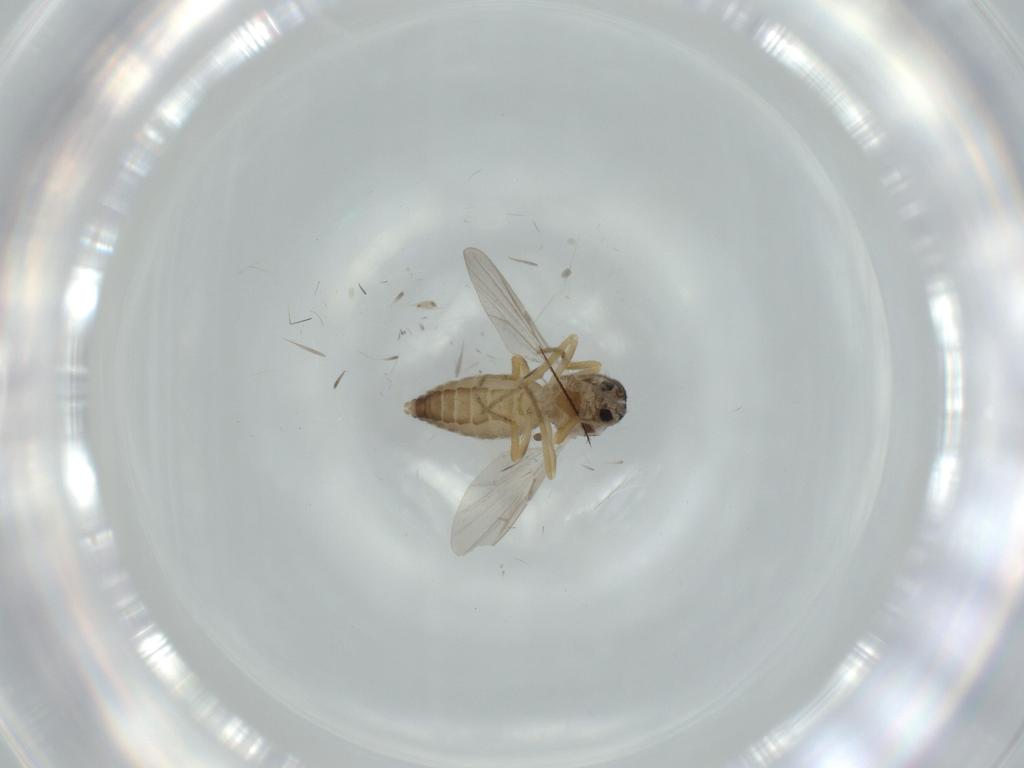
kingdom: Animalia
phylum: Arthropoda
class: Insecta
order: Diptera
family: Ceratopogonidae
